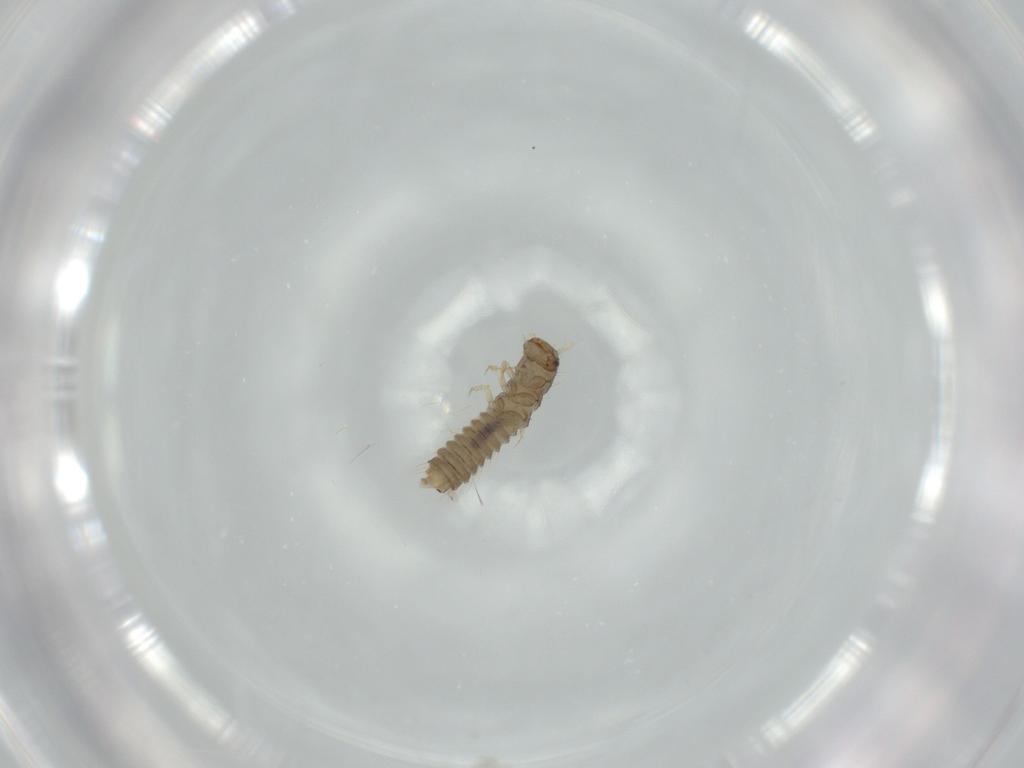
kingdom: Animalia
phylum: Arthropoda
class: Insecta
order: Coleoptera
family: Staphylinidae
